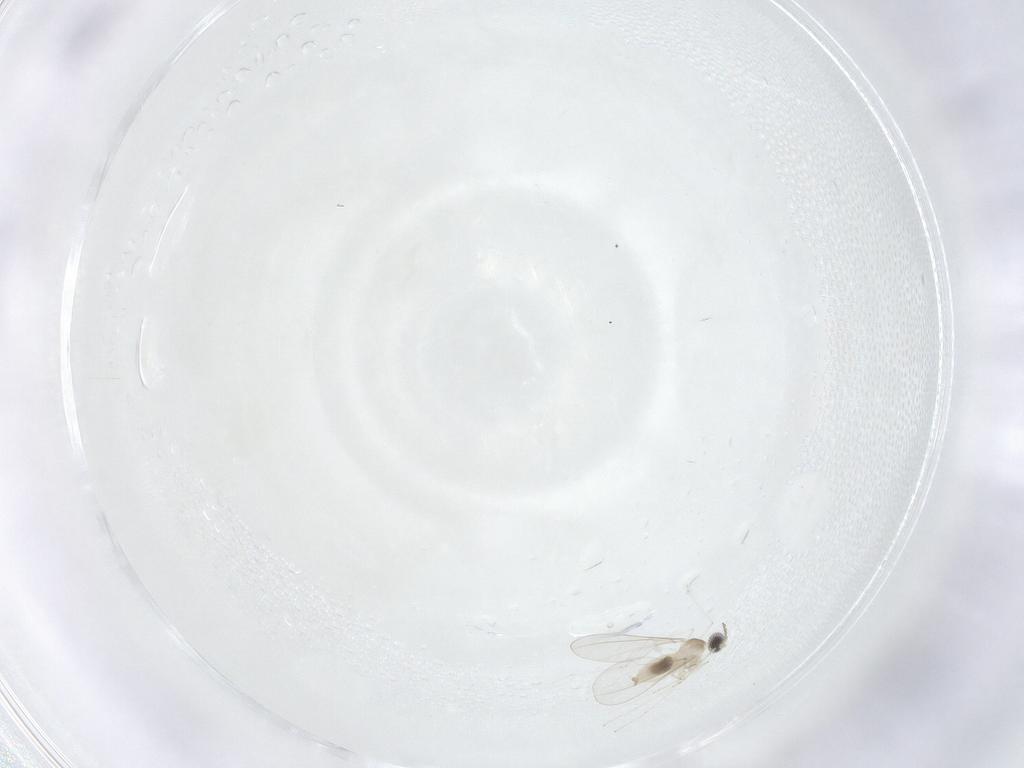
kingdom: Animalia
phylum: Arthropoda
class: Insecta
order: Diptera
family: Cecidomyiidae
